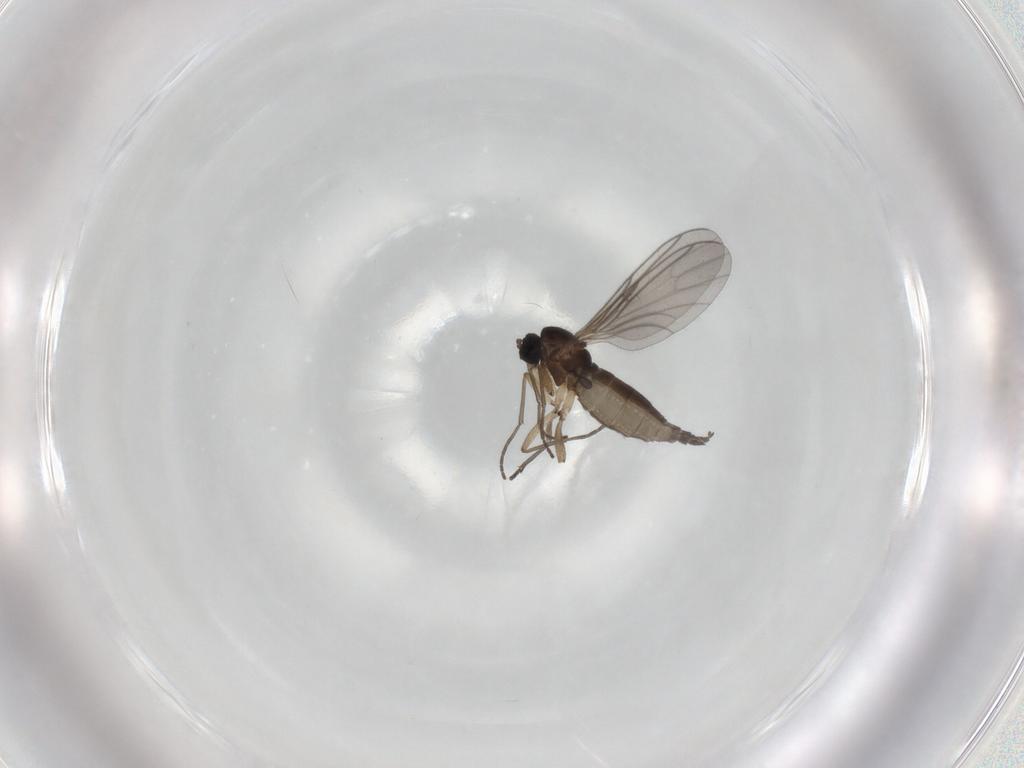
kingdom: Animalia
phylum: Arthropoda
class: Insecta
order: Diptera
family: Sciaridae
